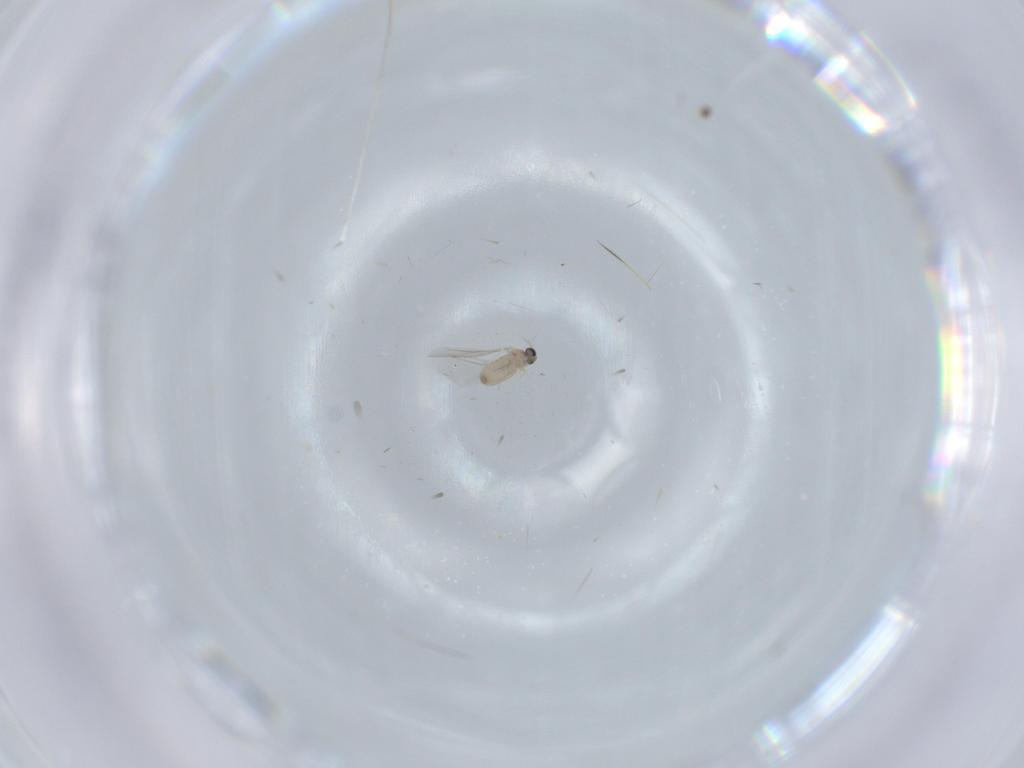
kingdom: Animalia
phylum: Arthropoda
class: Insecta
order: Diptera
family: Cecidomyiidae
